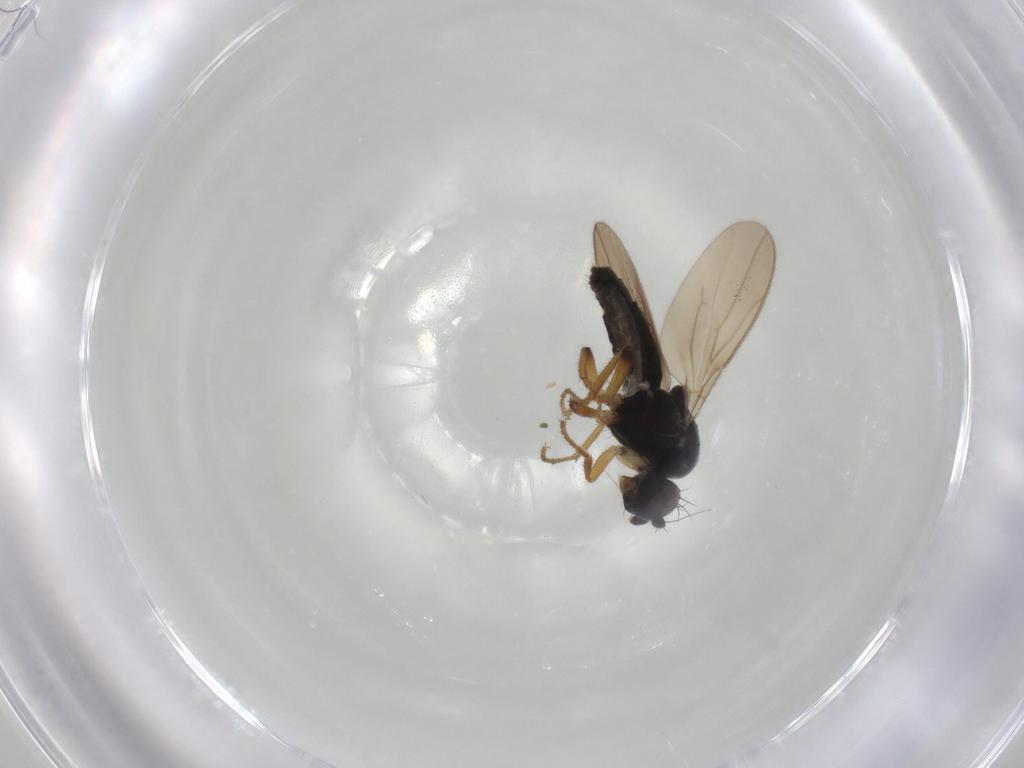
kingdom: Animalia
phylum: Arthropoda
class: Insecta
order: Diptera
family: Sphaeroceridae
